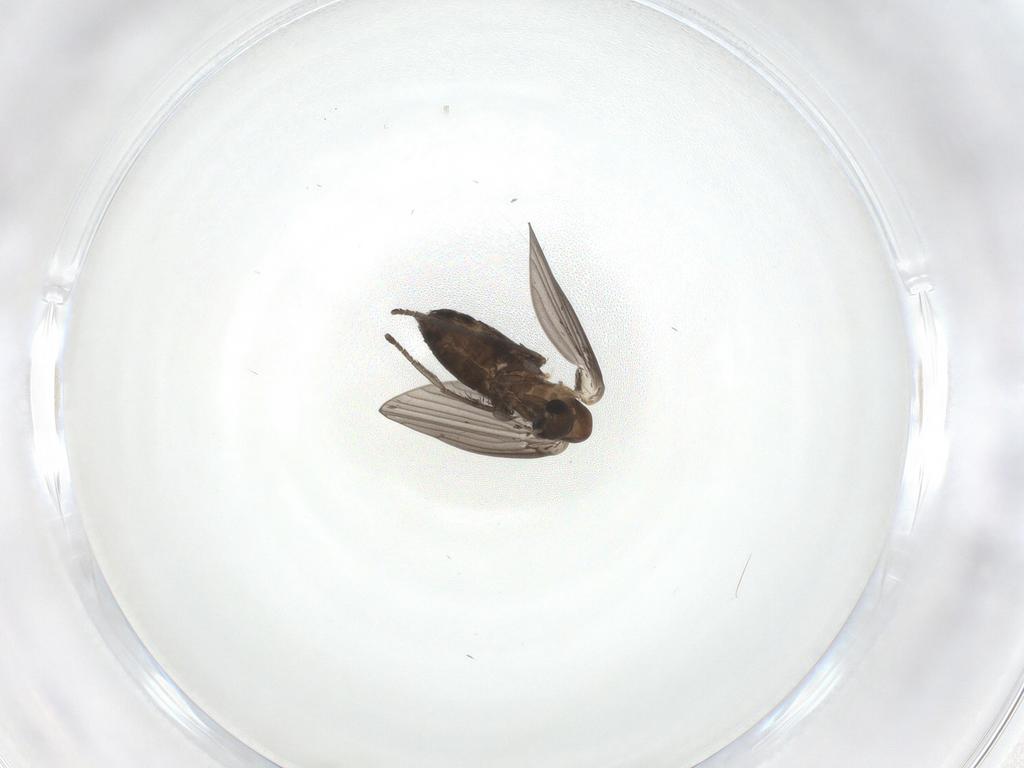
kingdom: Animalia
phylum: Arthropoda
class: Insecta
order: Diptera
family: Psychodidae
